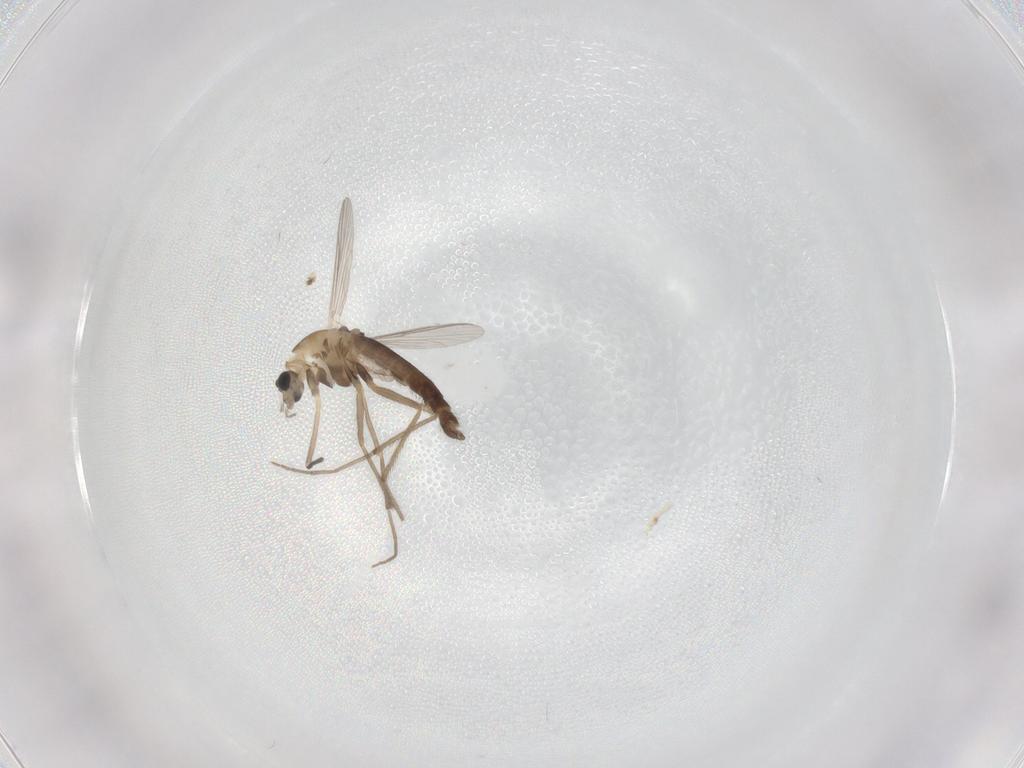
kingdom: Animalia
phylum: Arthropoda
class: Insecta
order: Diptera
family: Chironomidae
